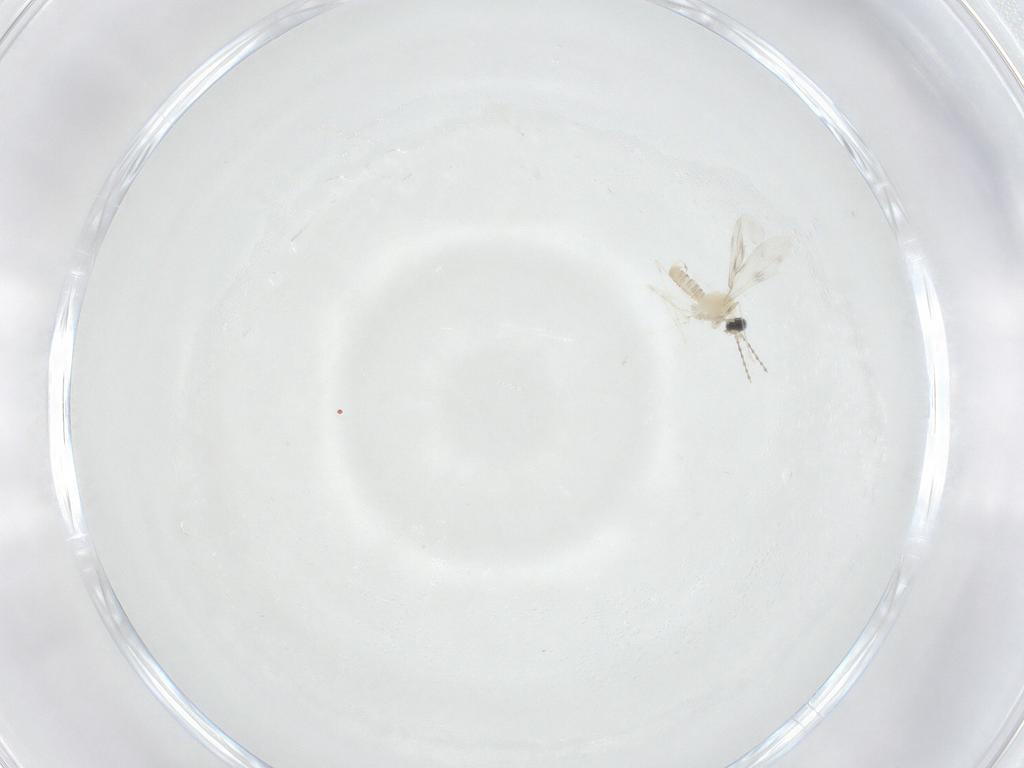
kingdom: Animalia
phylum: Arthropoda
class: Insecta
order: Diptera
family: Cecidomyiidae
